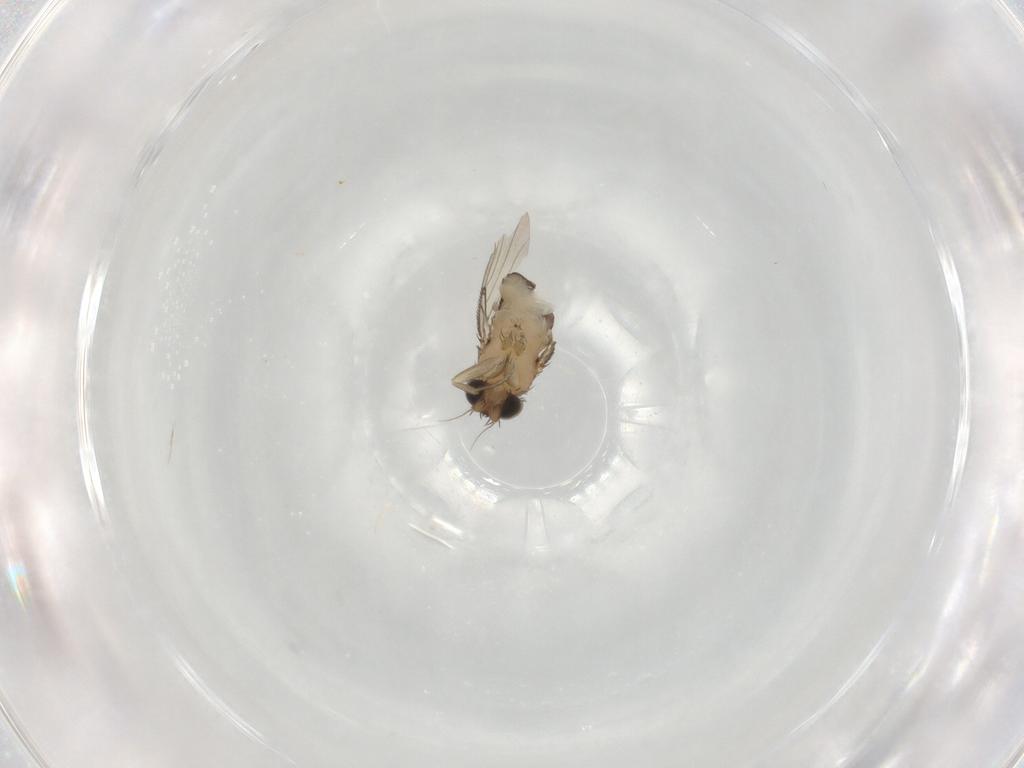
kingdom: Animalia
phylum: Arthropoda
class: Insecta
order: Diptera
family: Phoridae
